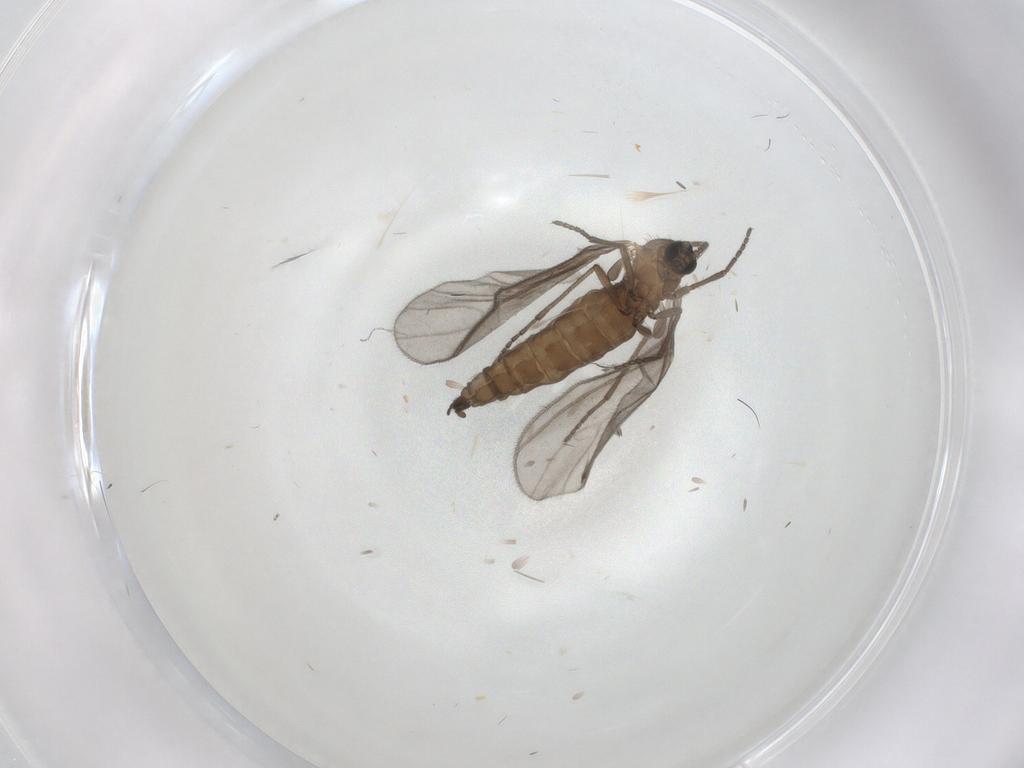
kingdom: Animalia
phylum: Arthropoda
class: Insecta
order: Diptera
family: Sciaridae
